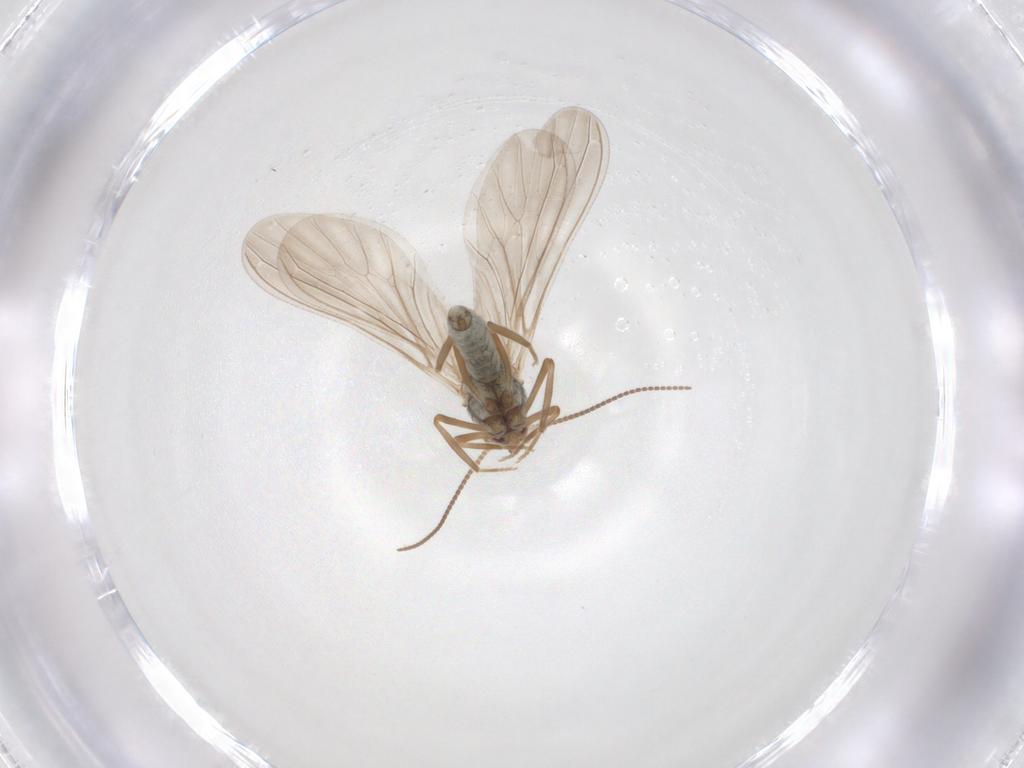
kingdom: Animalia
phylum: Arthropoda
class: Insecta
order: Neuroptera
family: Coniopterygidae
